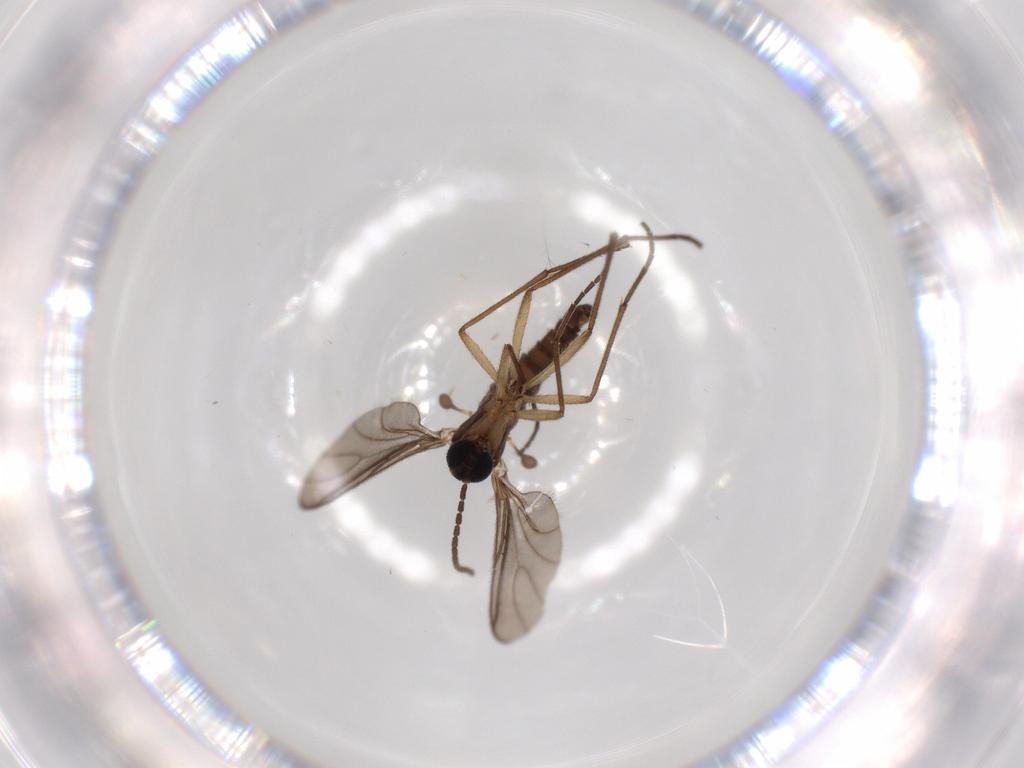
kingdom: Animalia
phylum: Arthropoda
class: Insecta
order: Diptera
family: Sciaridae
